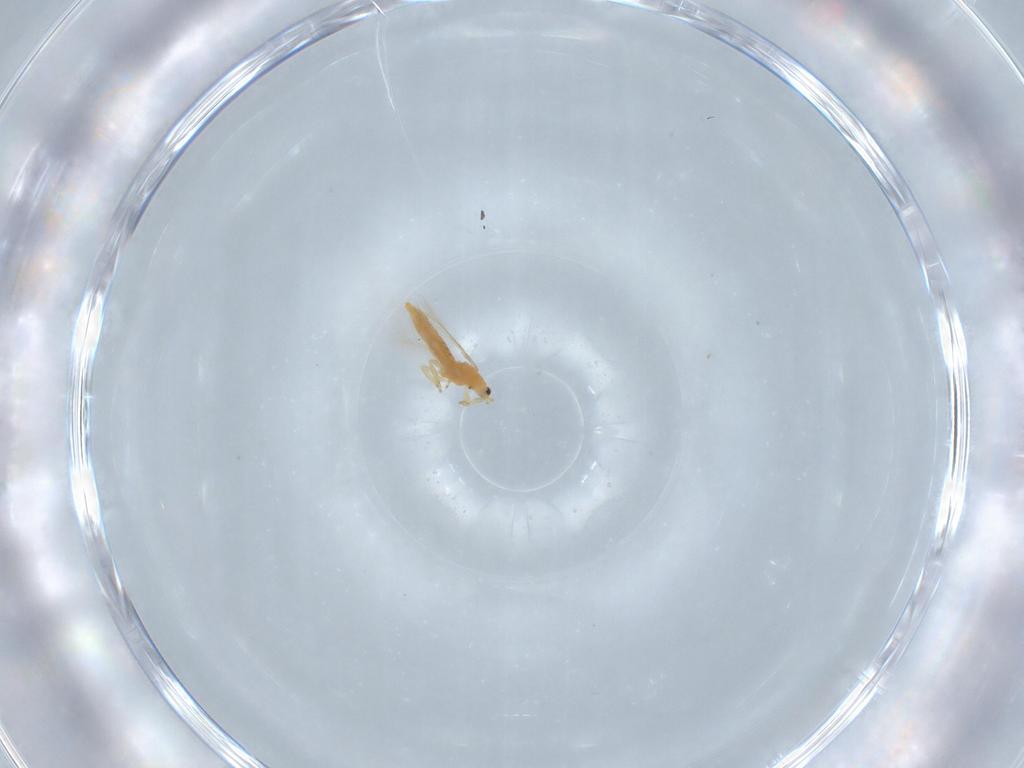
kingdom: Animalia
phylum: Arthropoda
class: Insecta
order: Thysanoptera
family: Thripidae
